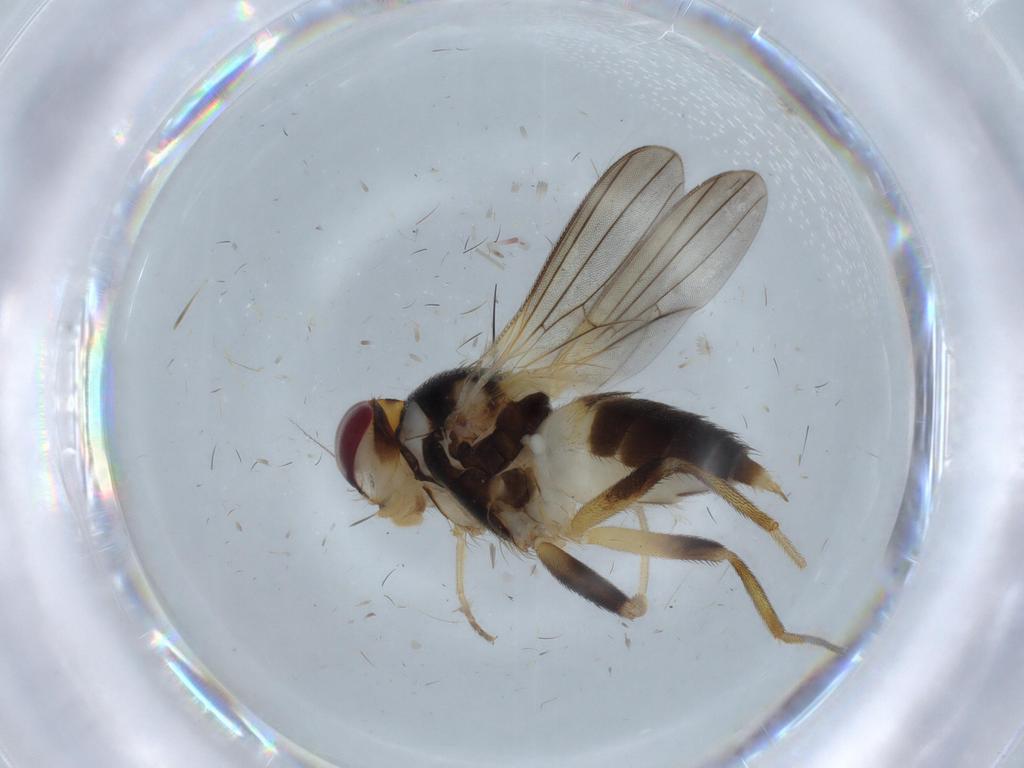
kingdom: Animalia
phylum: Arthropoda
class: Insecta
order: Diptera
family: Clusiidae
